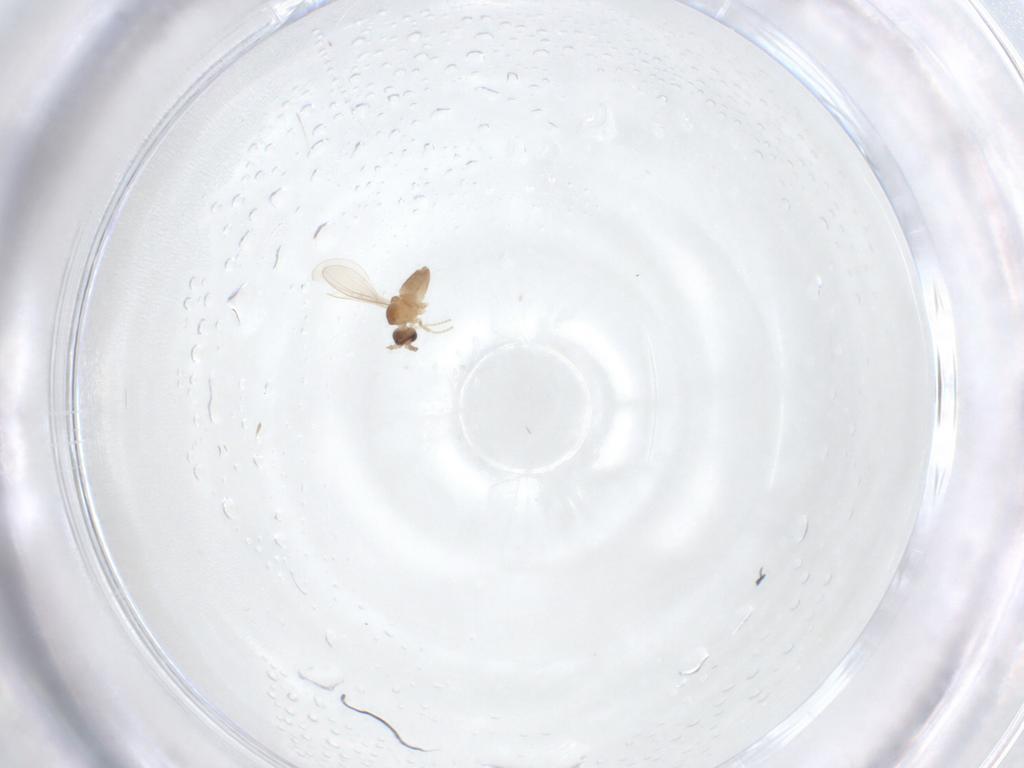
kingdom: Animalia
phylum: Arthropoda
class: Insecta
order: Diptera
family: Cecidomyiidae
